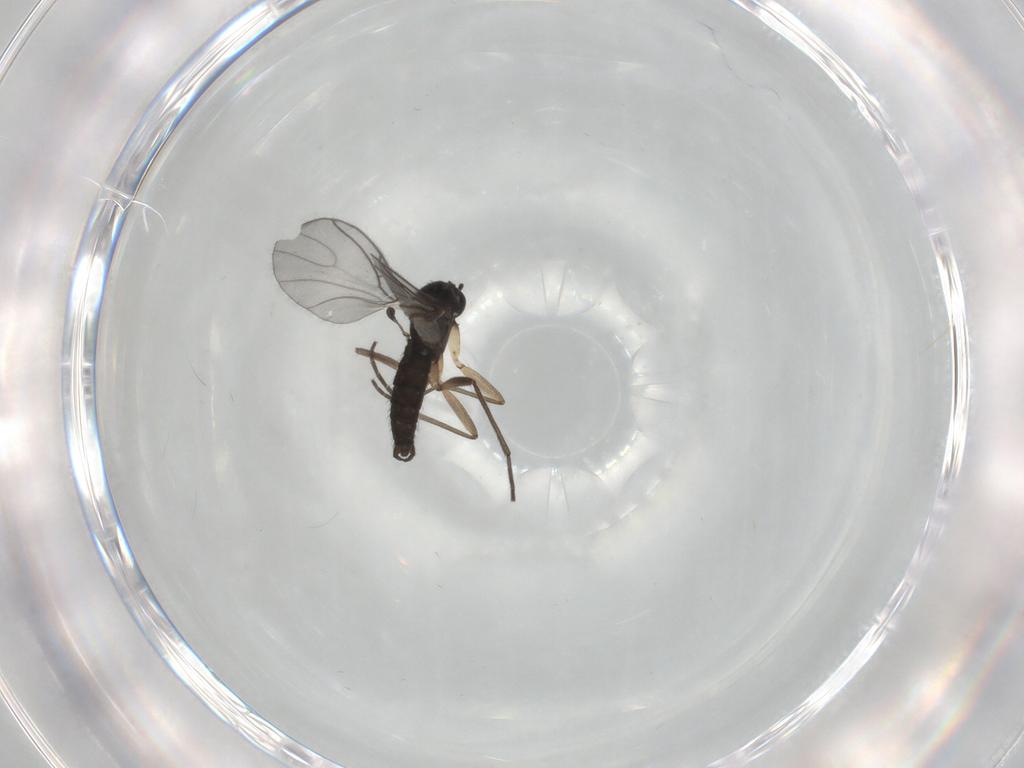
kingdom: Animalia
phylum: Arthropoda
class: Insecta
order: Diptera
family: Sciaridae
